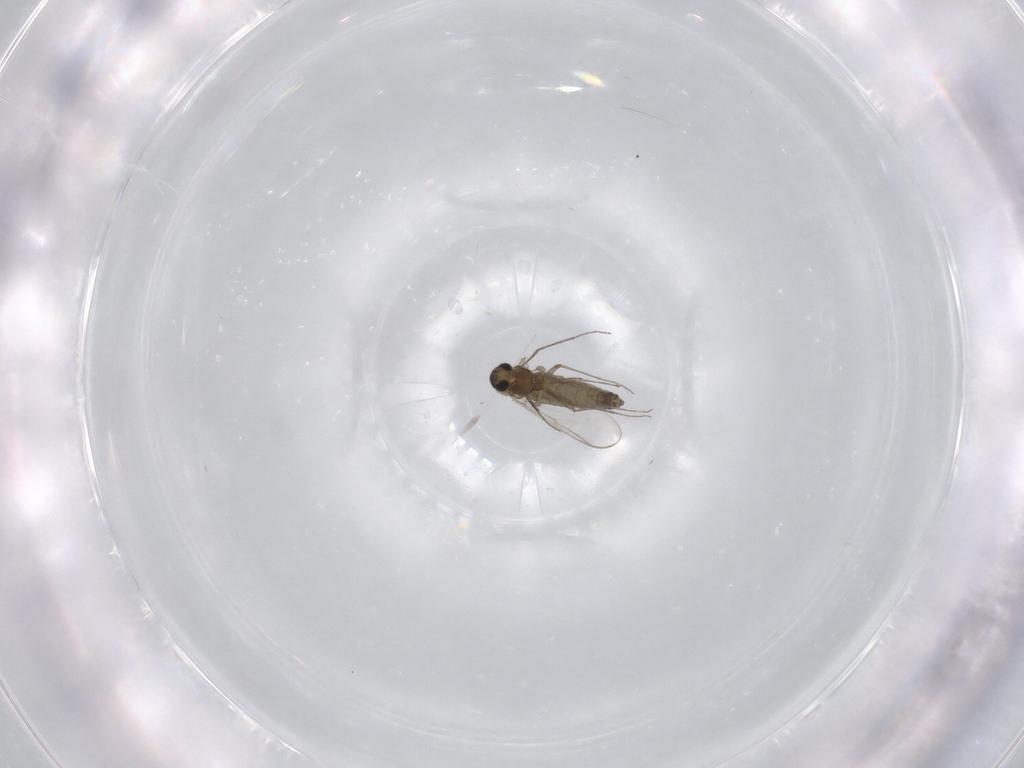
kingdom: Animalia
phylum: Arthropoda
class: Insecta
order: Diptera
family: Chironomidae
